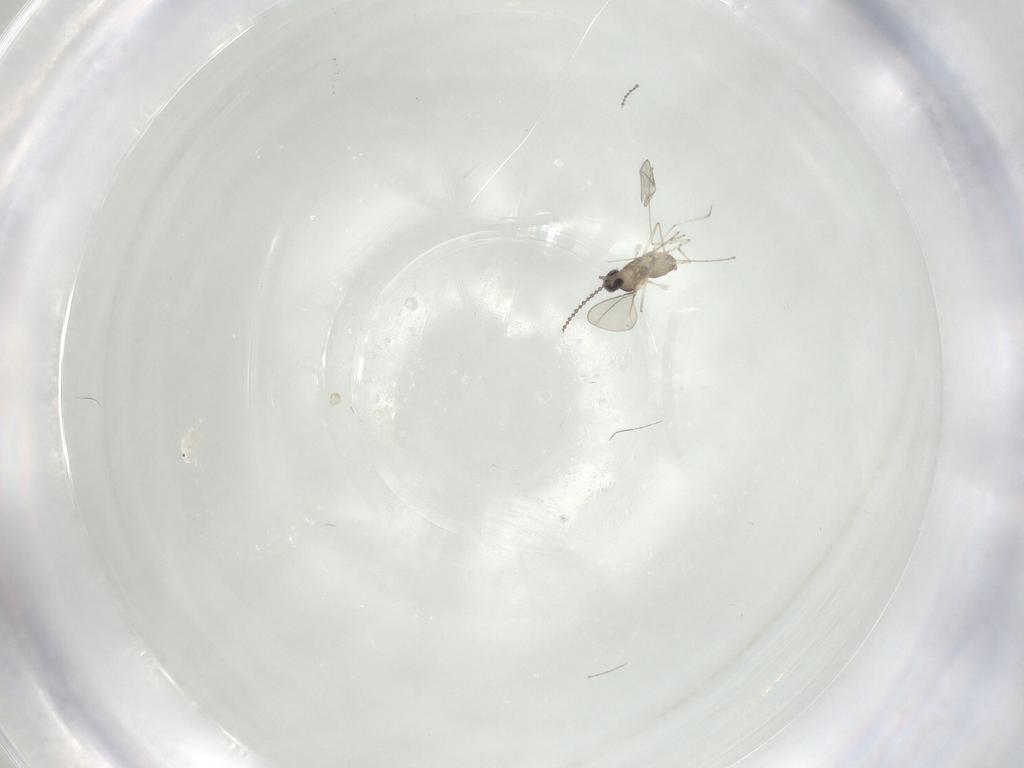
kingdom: Animalia
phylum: Arthropoda
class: Insecta
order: Diptera
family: Cecidomyiidae
